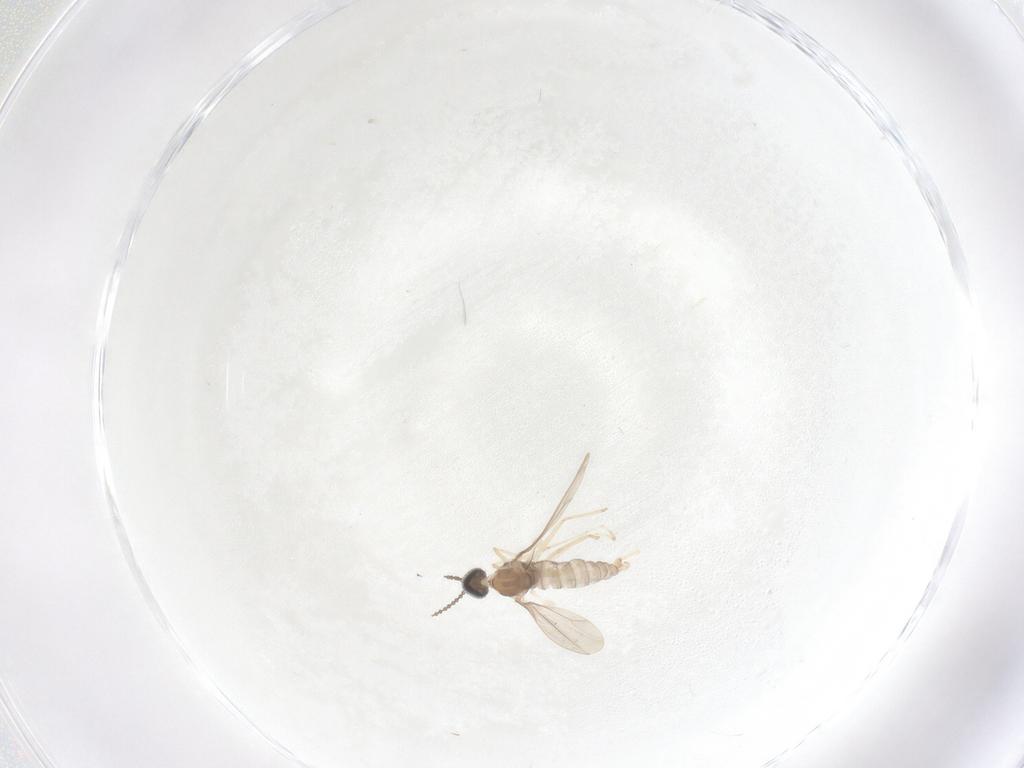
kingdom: Animalia
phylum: Arthropoda
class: Insecta
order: Diptera
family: Cecidomyiidae
